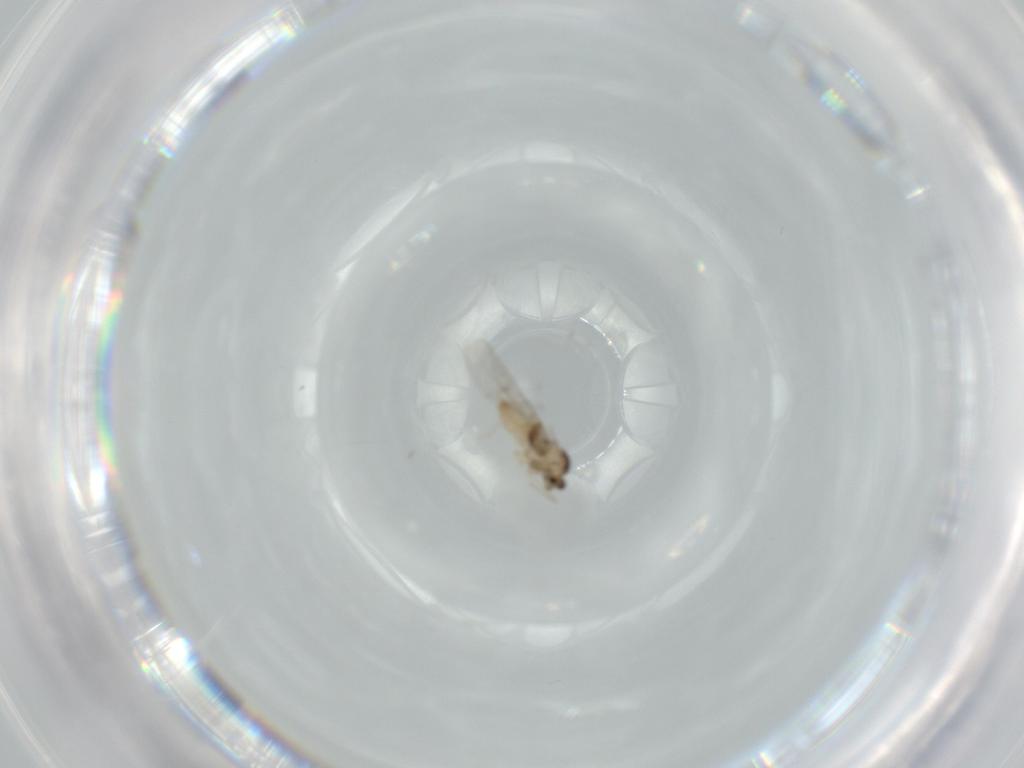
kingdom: Animalia
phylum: Arthropoda
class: Insecta
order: Diptera
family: Cecidomyiidae
